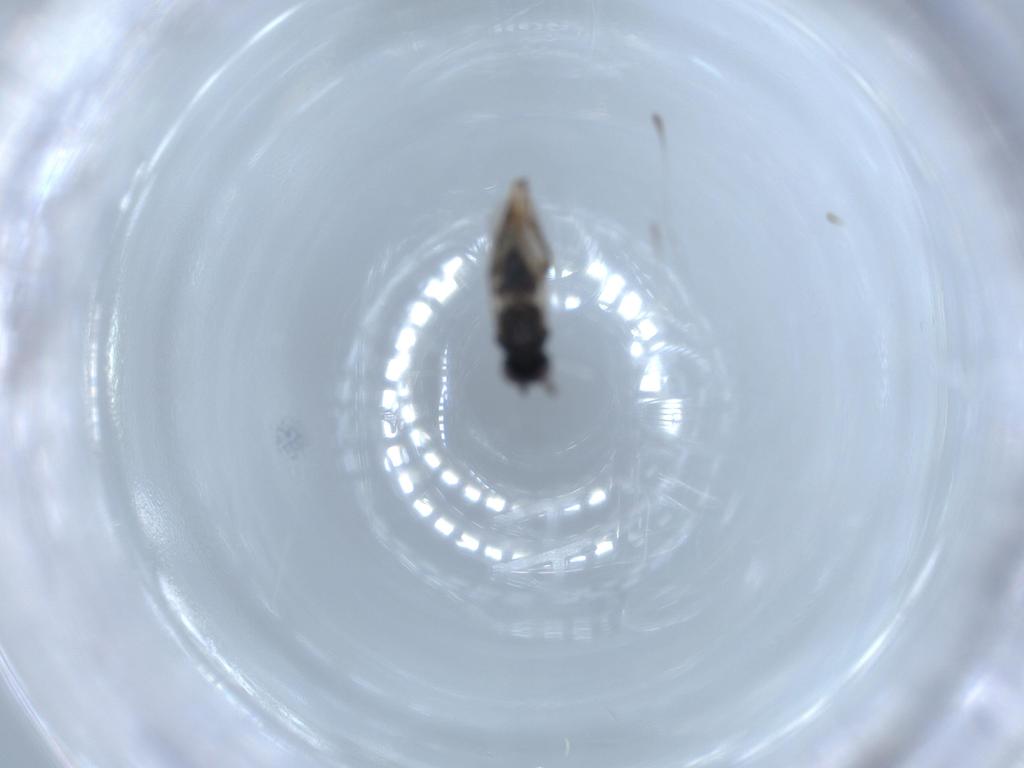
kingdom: Animalia
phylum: Arthropoda
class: Insecta
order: Hymenoptera
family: Encyrtidae
